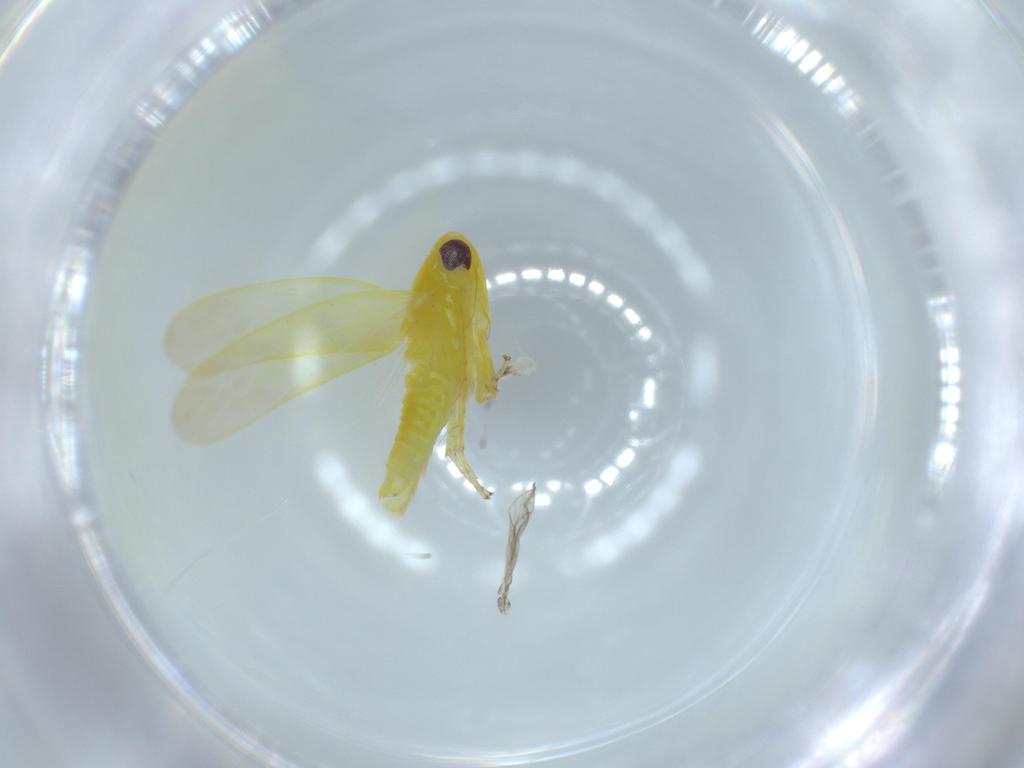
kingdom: Animalia
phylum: Arthropoda
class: Insecta
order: Hemiptera
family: Cicadellidae
